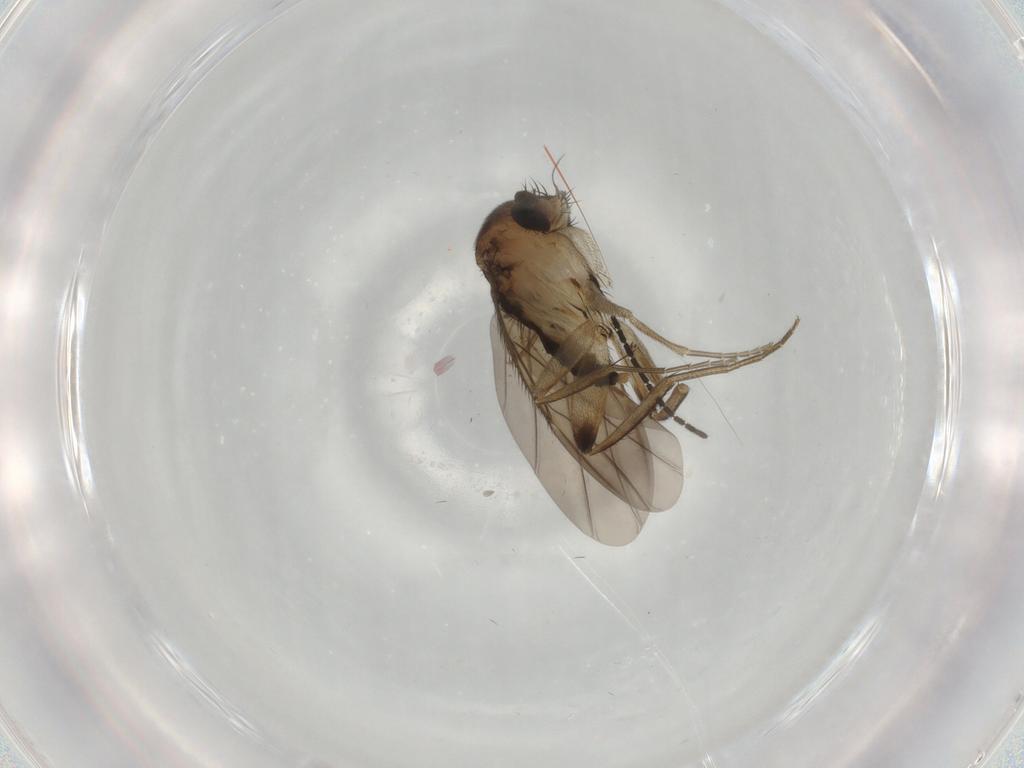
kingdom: Animalia
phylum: Arthropoda
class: Insecta
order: Diptera
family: Phoridae
